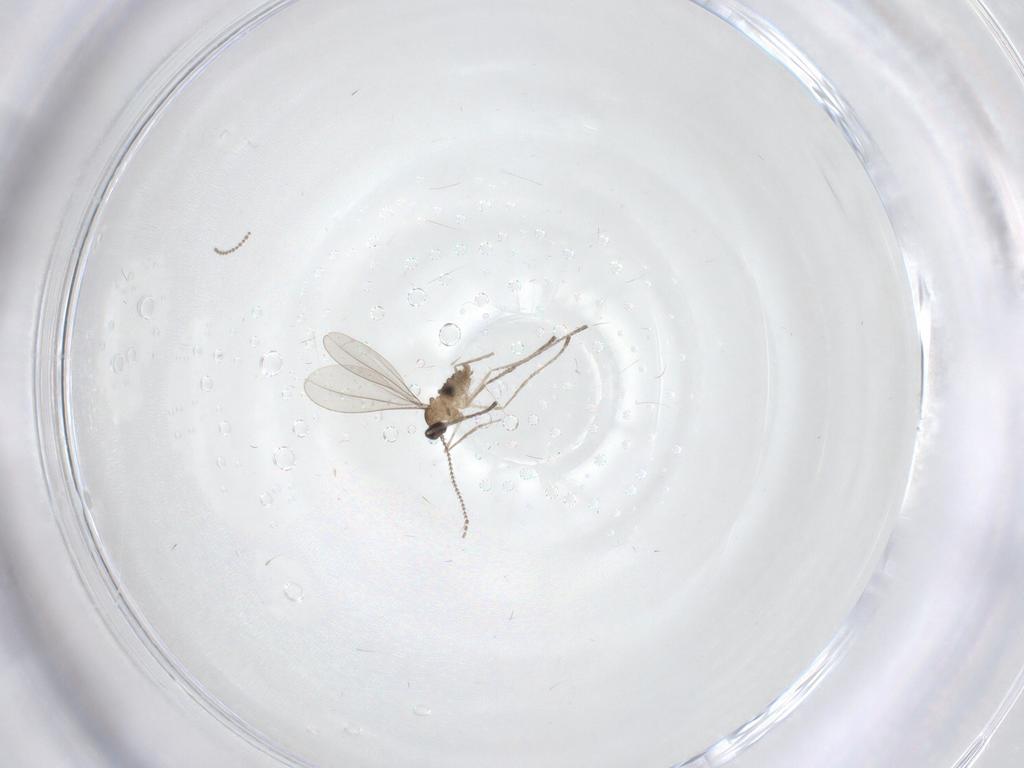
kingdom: Animalia
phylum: Arthropoda
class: Insecta
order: Diptera
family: Cecidomyiidae
